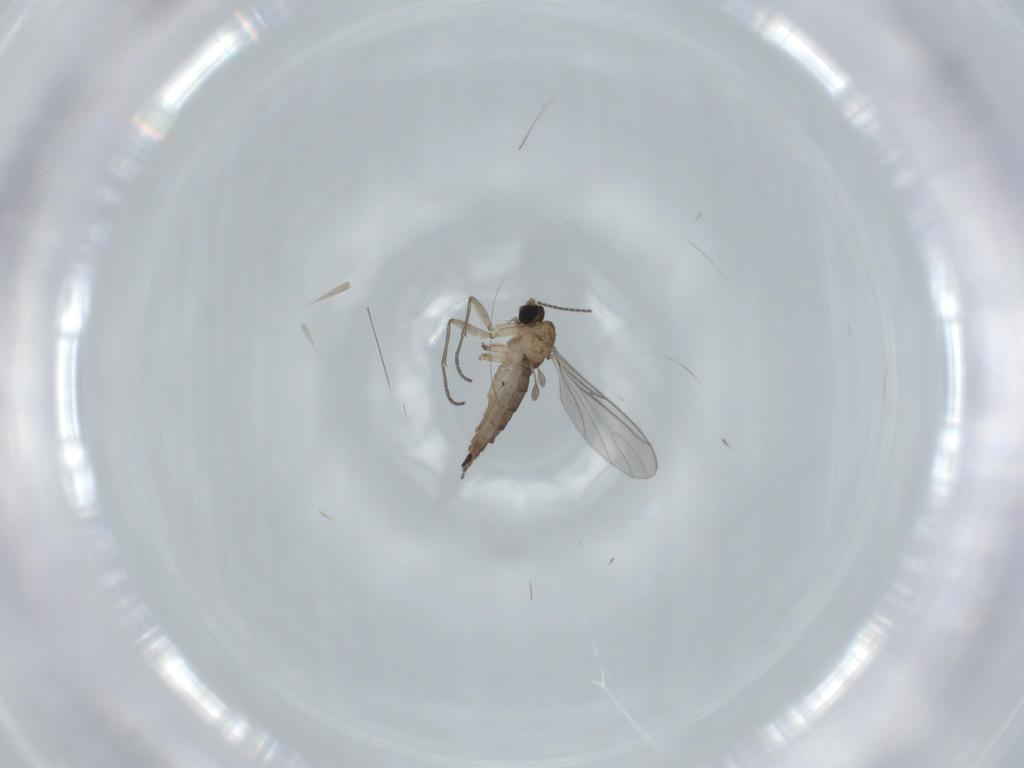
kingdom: Animalia
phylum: Arthropoda
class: Insecta
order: Diptera
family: Sciaridae
